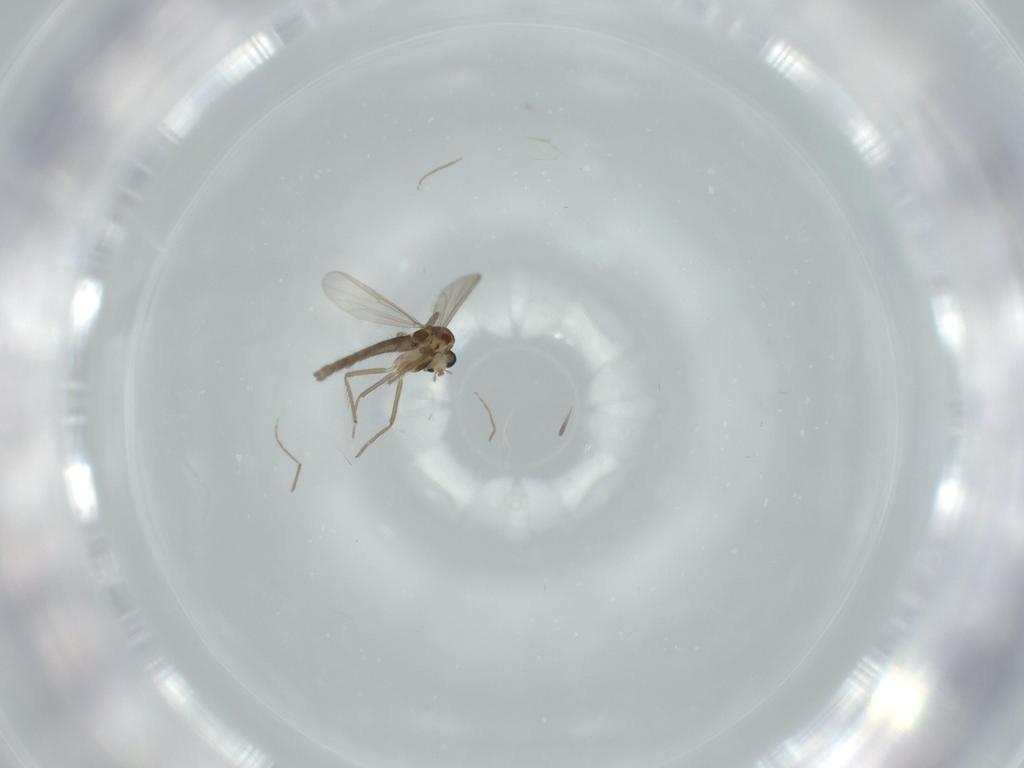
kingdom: Animalia
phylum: Arthropoda
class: Insecta
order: Diptera
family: Chironomidae
